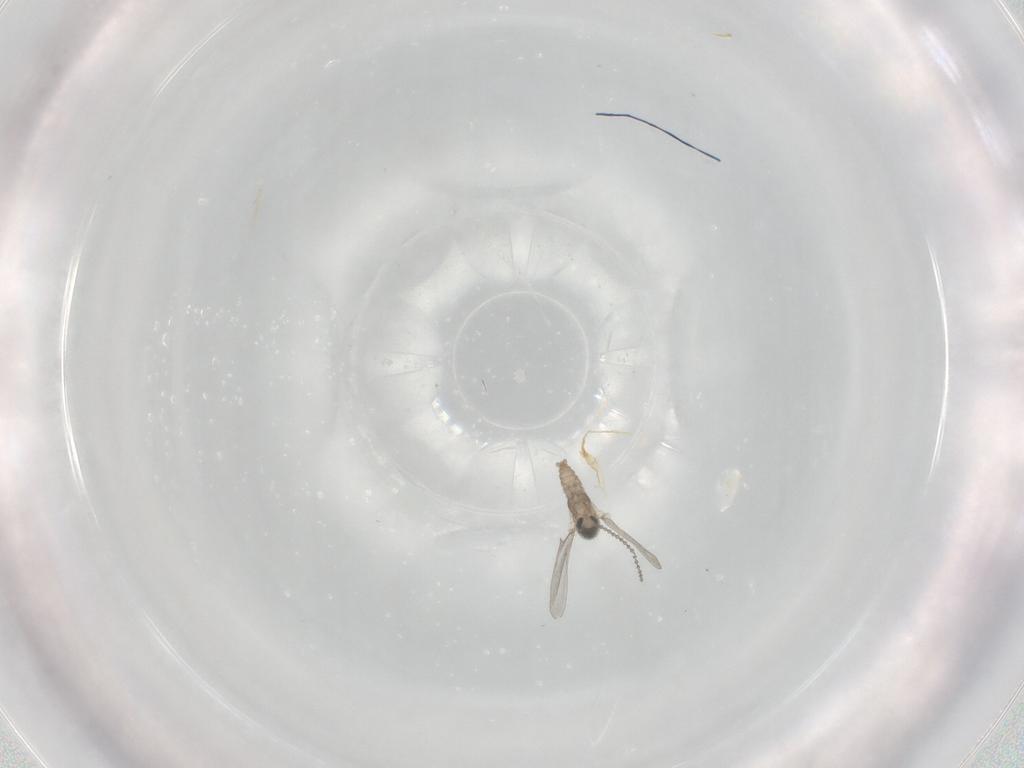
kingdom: Animalia
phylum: Arthropoda
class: Insecta
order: Diptera
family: Cecidomyiidae
